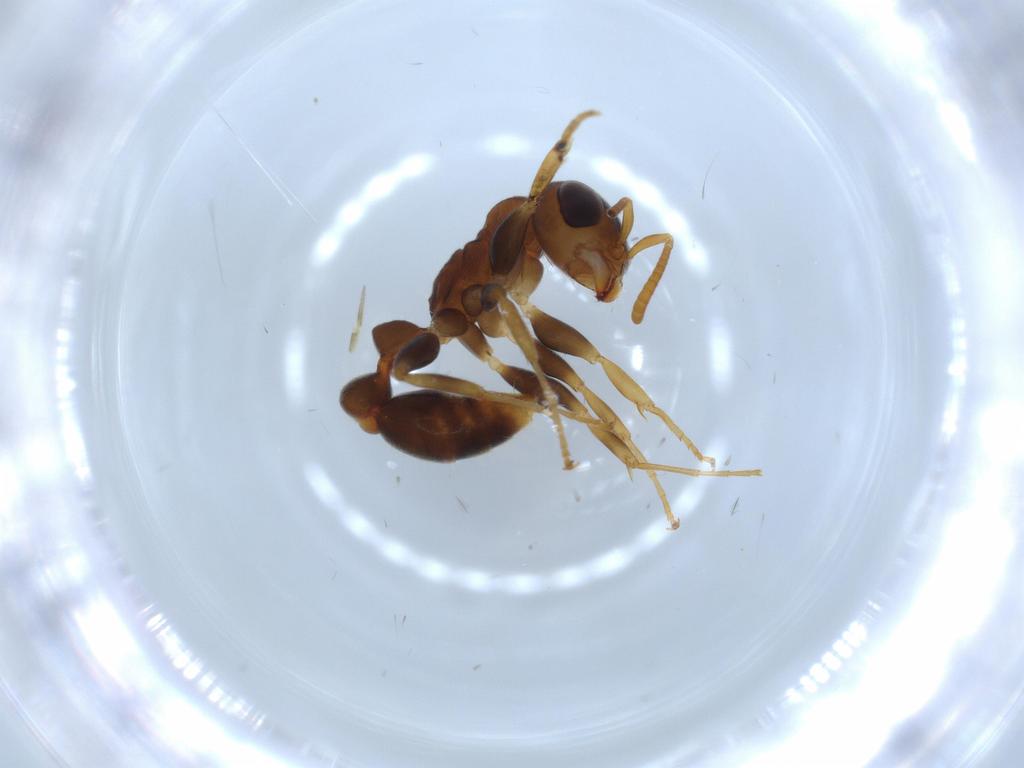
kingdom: Animalia
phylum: Arthropoda
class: Insecta
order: Hymenoptera
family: Formicidae
